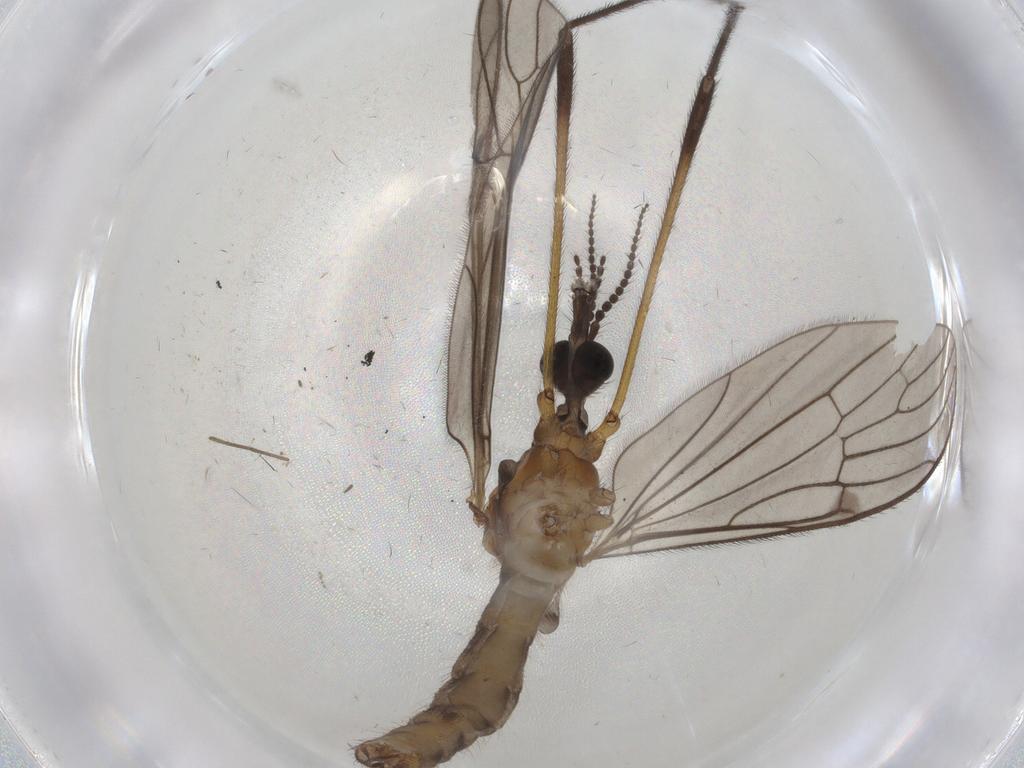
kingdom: Animalia
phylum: Arthropoda
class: Insecta
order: Diptera
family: Limoniidae
